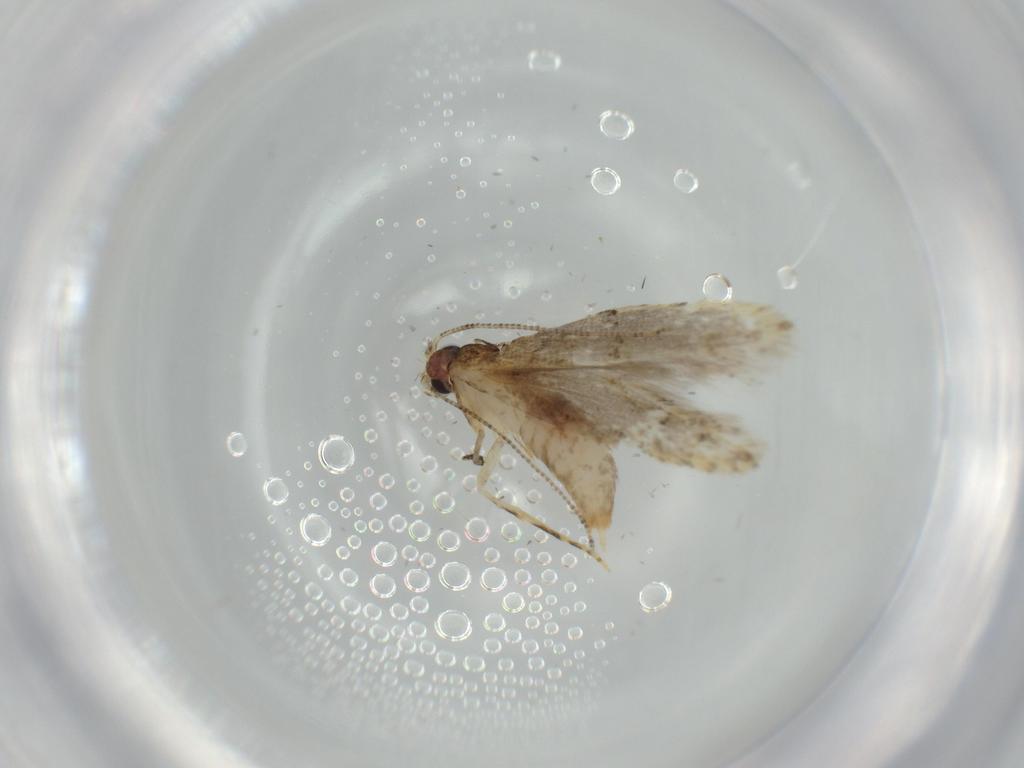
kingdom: Animalia
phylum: Arthropoda
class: Insecta
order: Lepidoptera
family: Tineidae
